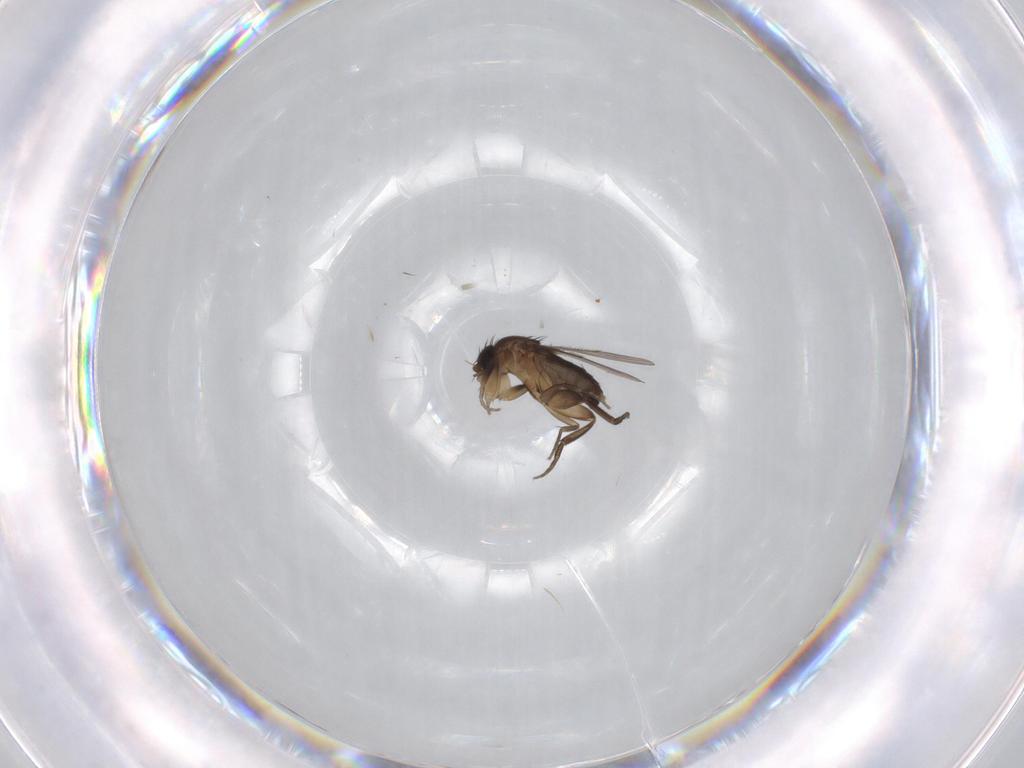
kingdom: Animalia
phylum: Arthropoda
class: Insecta
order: Diptera
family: Phoridae
